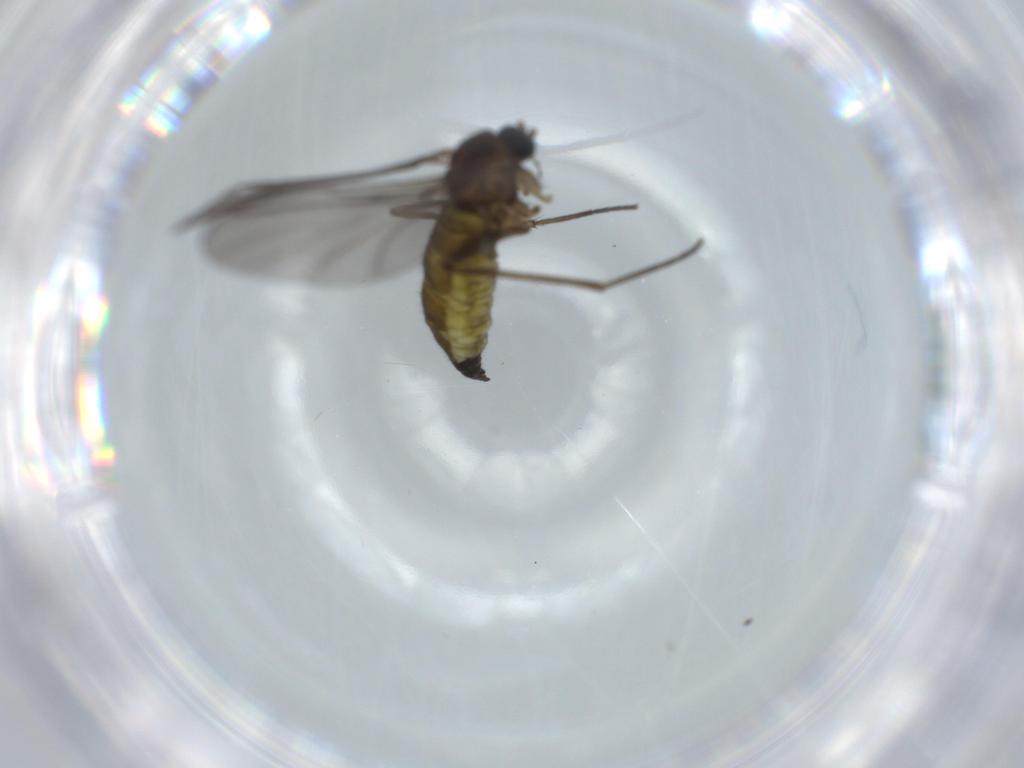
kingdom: Animalia
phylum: Arthropoda
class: Insecta
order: Diptera
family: Sciaridae
